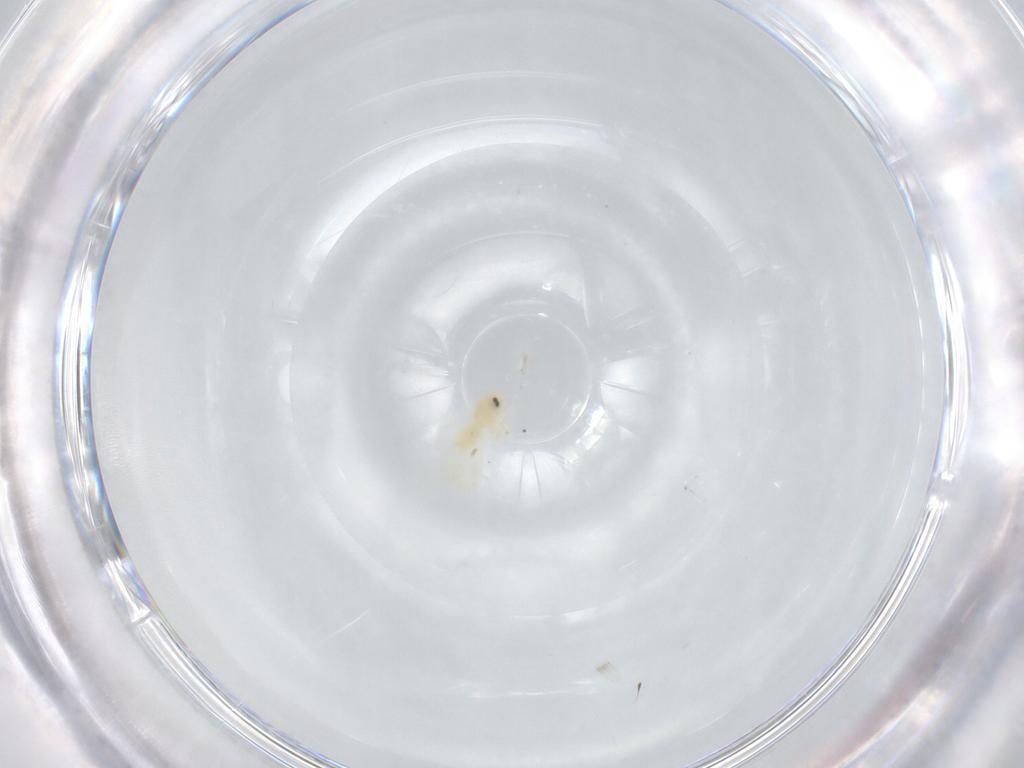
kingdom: Animalia
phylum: Arthropoda
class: Insecta
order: Hemiptera
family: Aleyrodidae
